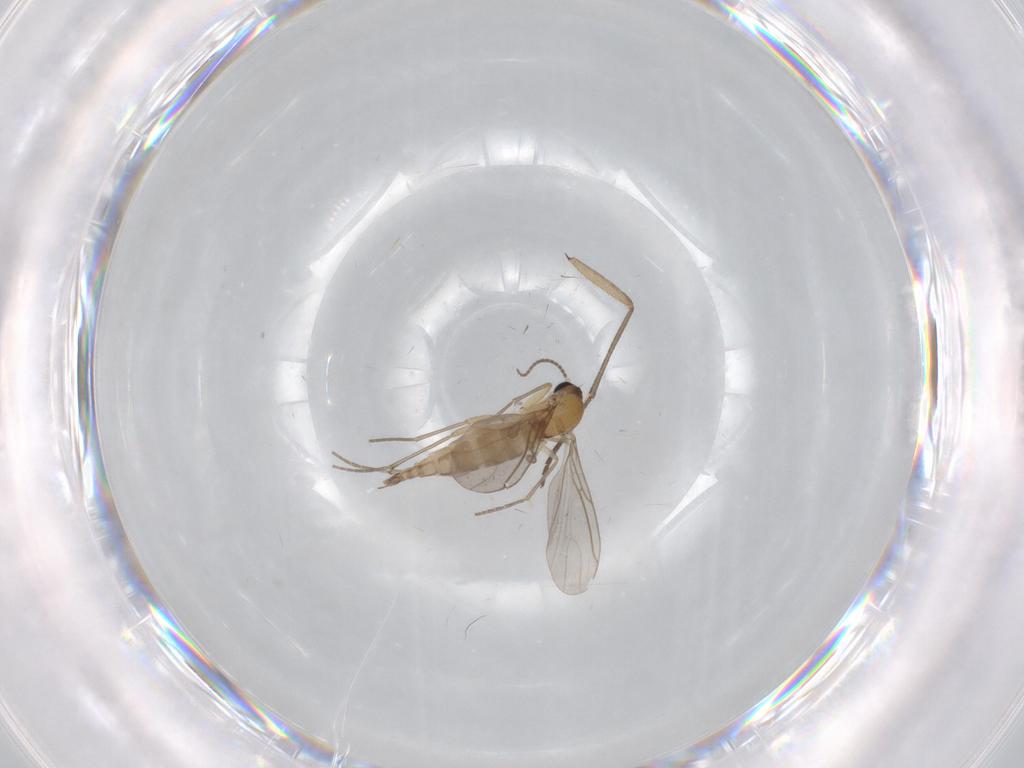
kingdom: Animalia
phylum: Arthropoda
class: Insecta
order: Diptera
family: Sciaridae
